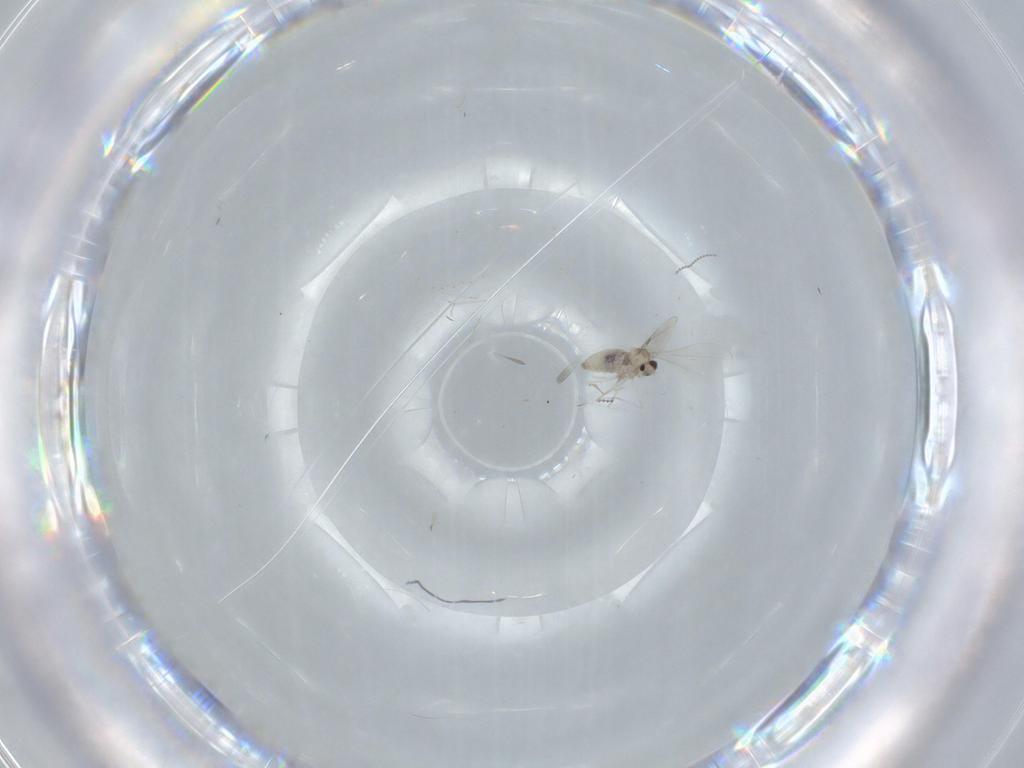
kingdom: Animalia
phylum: Arthropoda
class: Insecta
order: Diptera
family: Cecidomyiidae
